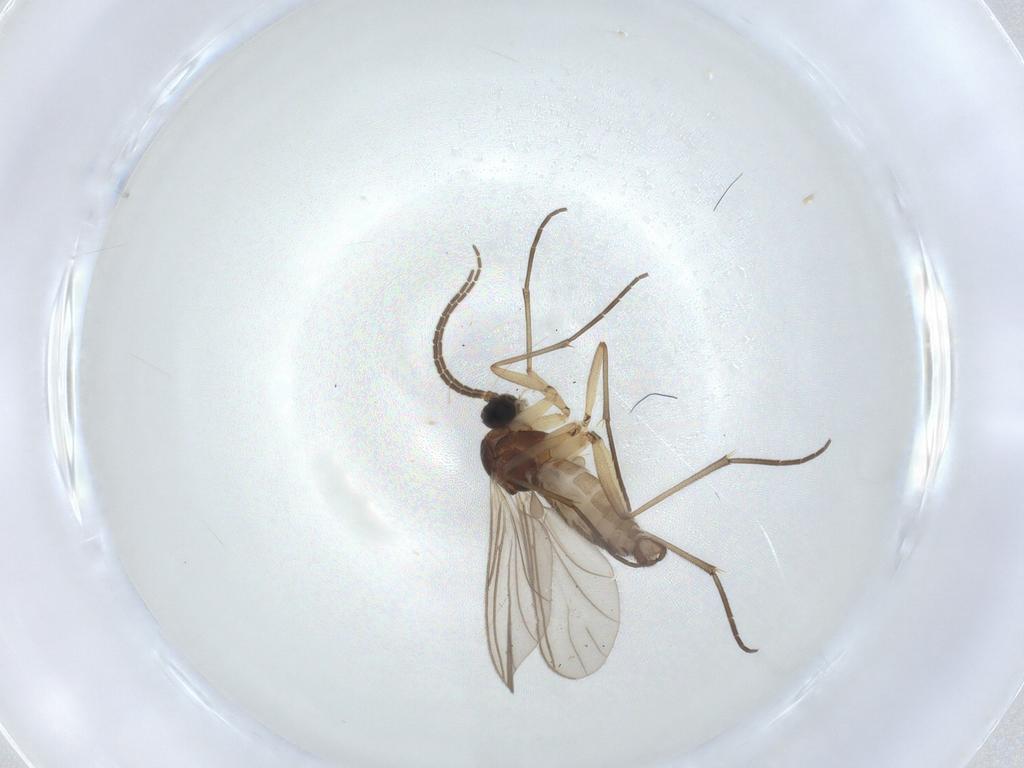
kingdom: Animalia
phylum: Arthropoda
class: Insecta
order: Diptera
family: Sciaridae
